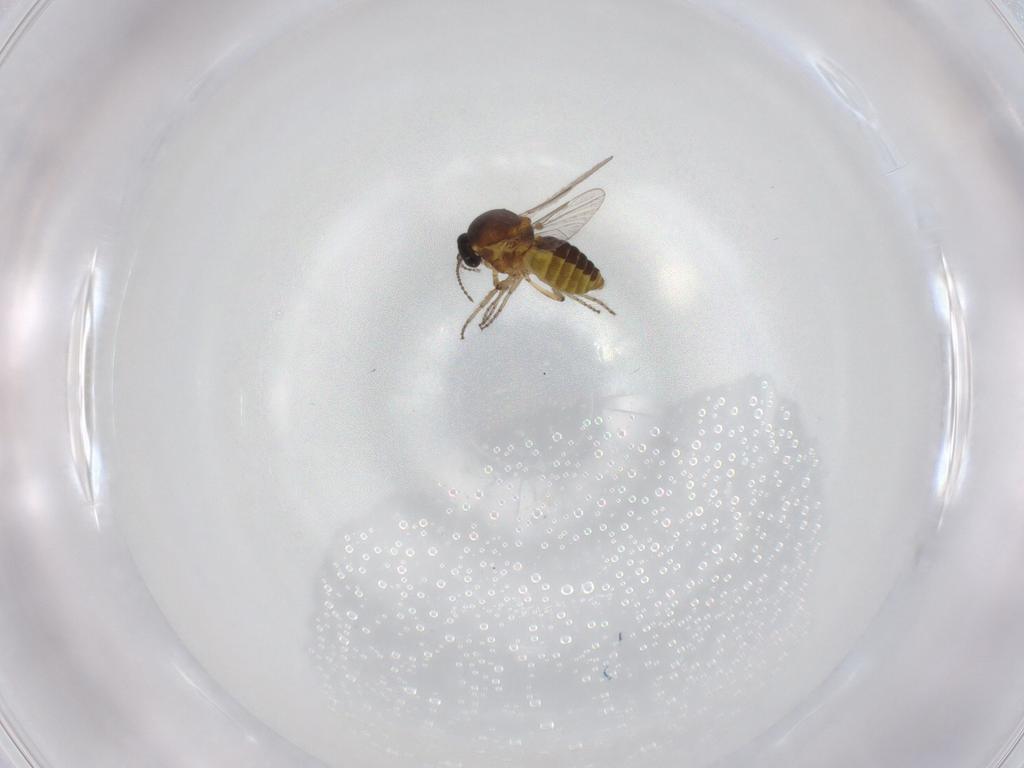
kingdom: Animalia
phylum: Arthropoda
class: Insecta
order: Diptera
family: Ceratopogonidae
